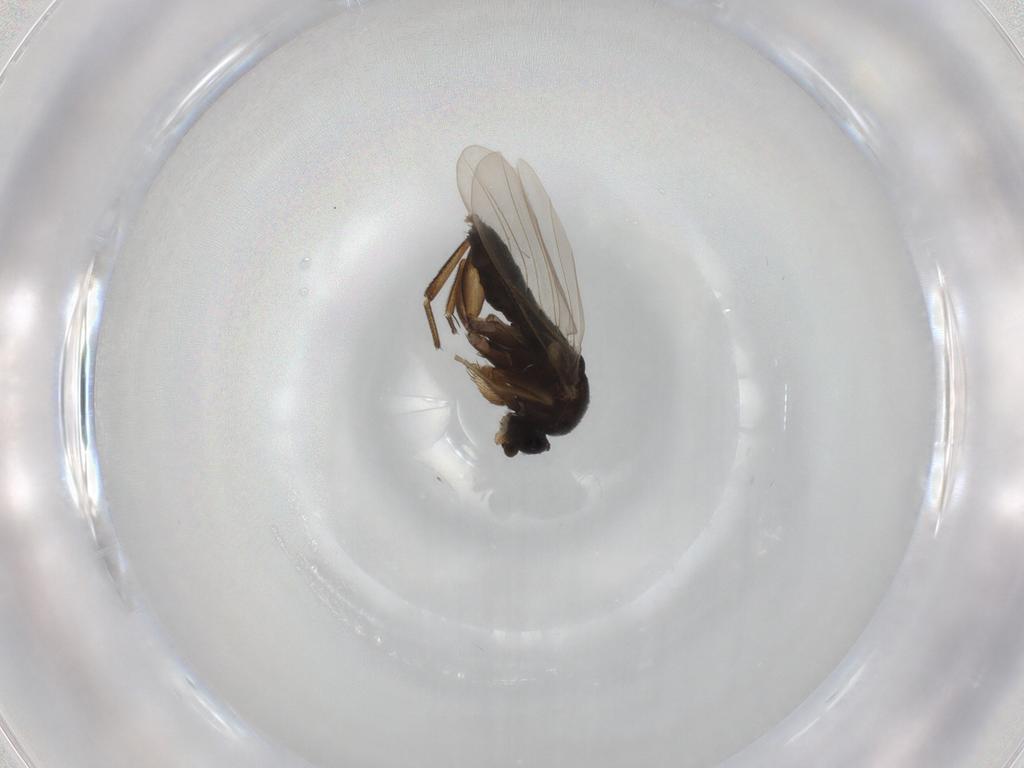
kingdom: Animalia
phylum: Arthropoda
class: Insecta
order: Diptera
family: Phoridae
